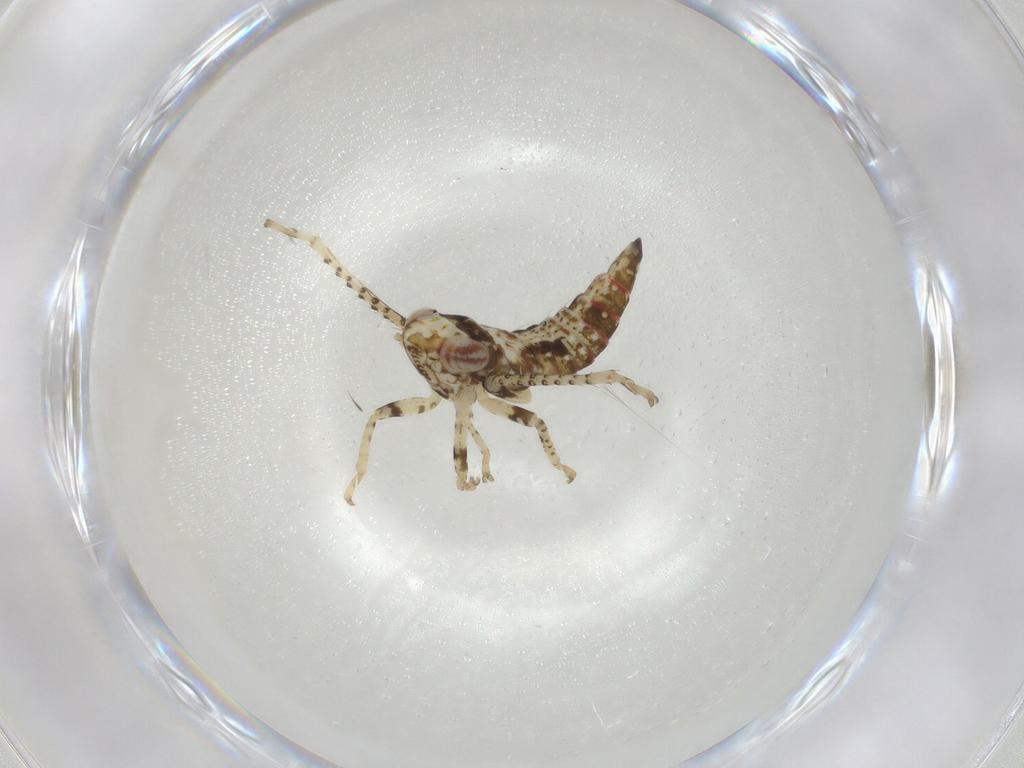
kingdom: Animalia
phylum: Arthropoda
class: Insecta
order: Hemiptera
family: Cicadellidae
